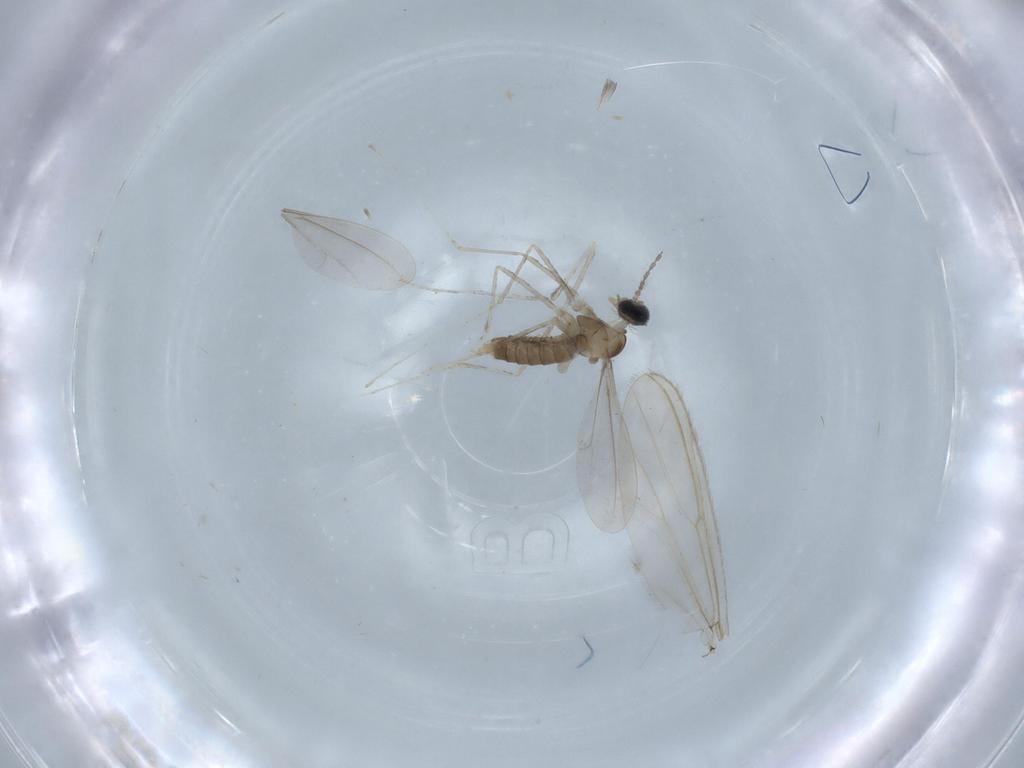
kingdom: Animalia
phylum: Arthropoda
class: Insecta
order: Diptera
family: Chironomidae
